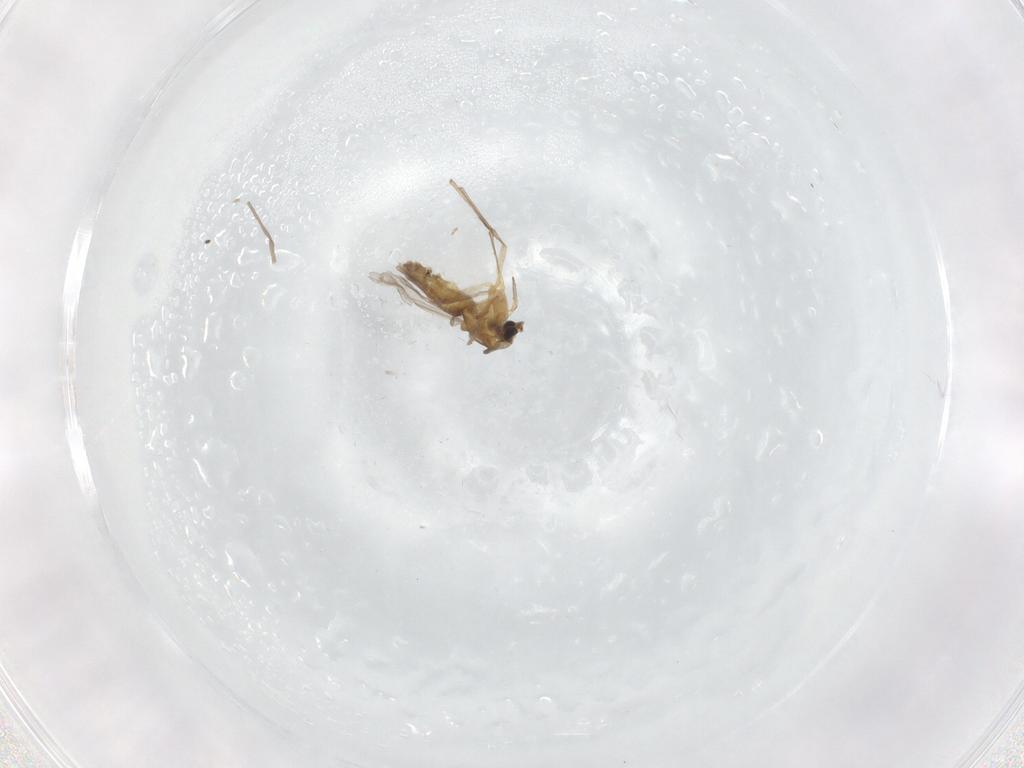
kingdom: Animalia
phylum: Arthropoda
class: Insecta
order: Diptera
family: Chironomidae
